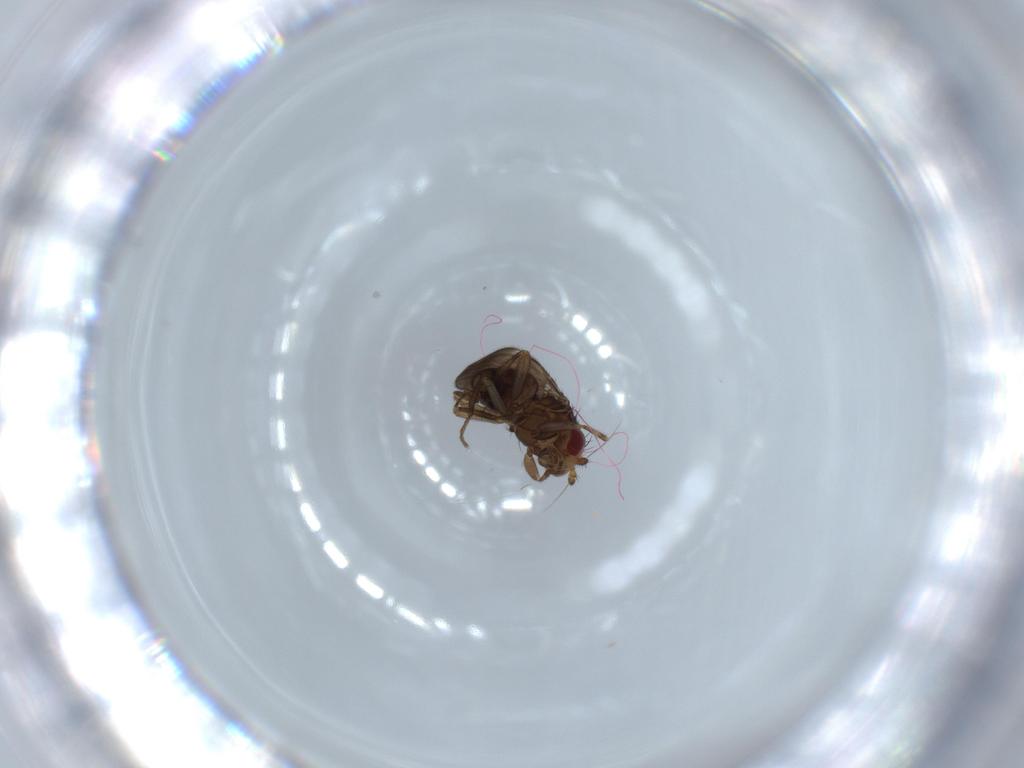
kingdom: Animalia
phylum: Arthropoda
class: Insecta
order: Diptera
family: Sphaeroceridae
